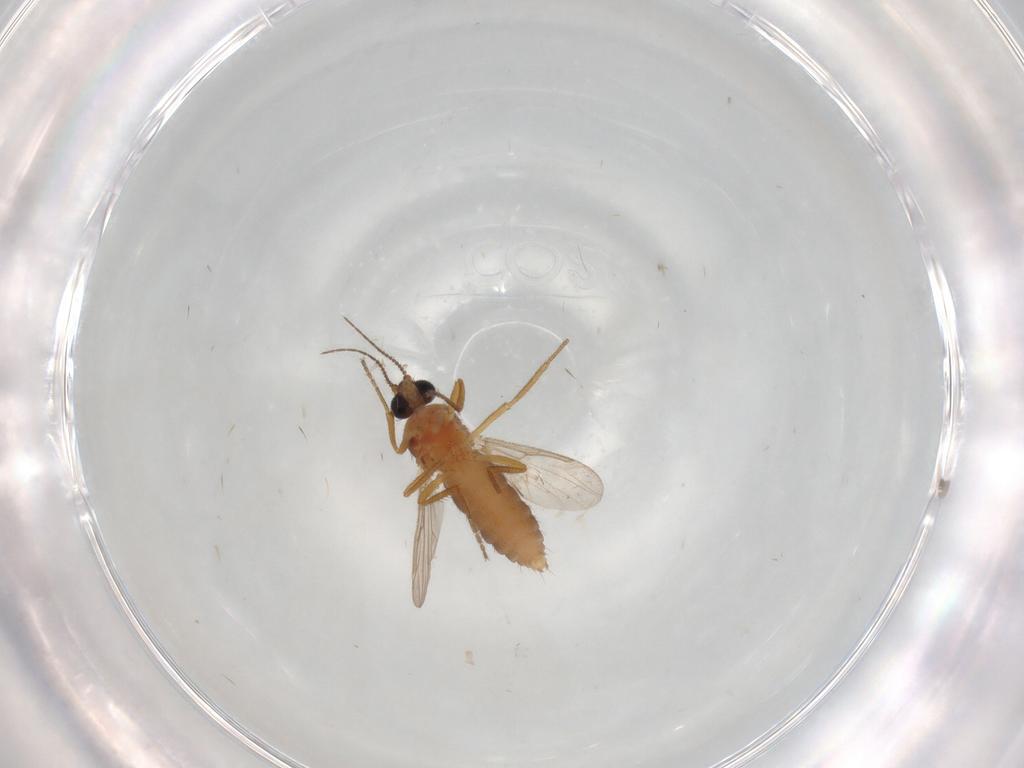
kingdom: Animalia
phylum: Arthropoda
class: Insecta
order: Diptera
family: Ceratopogonidae
